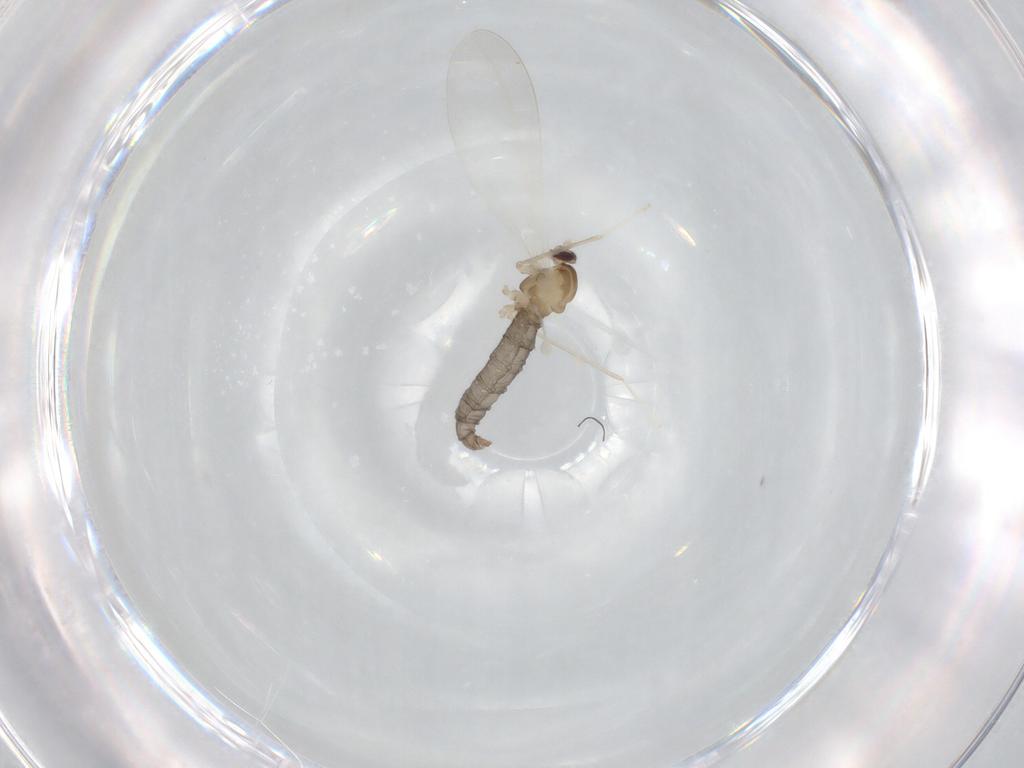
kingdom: Animalia
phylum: Arthropoda
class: Insecta
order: Diptera
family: Cecidomyiidae
